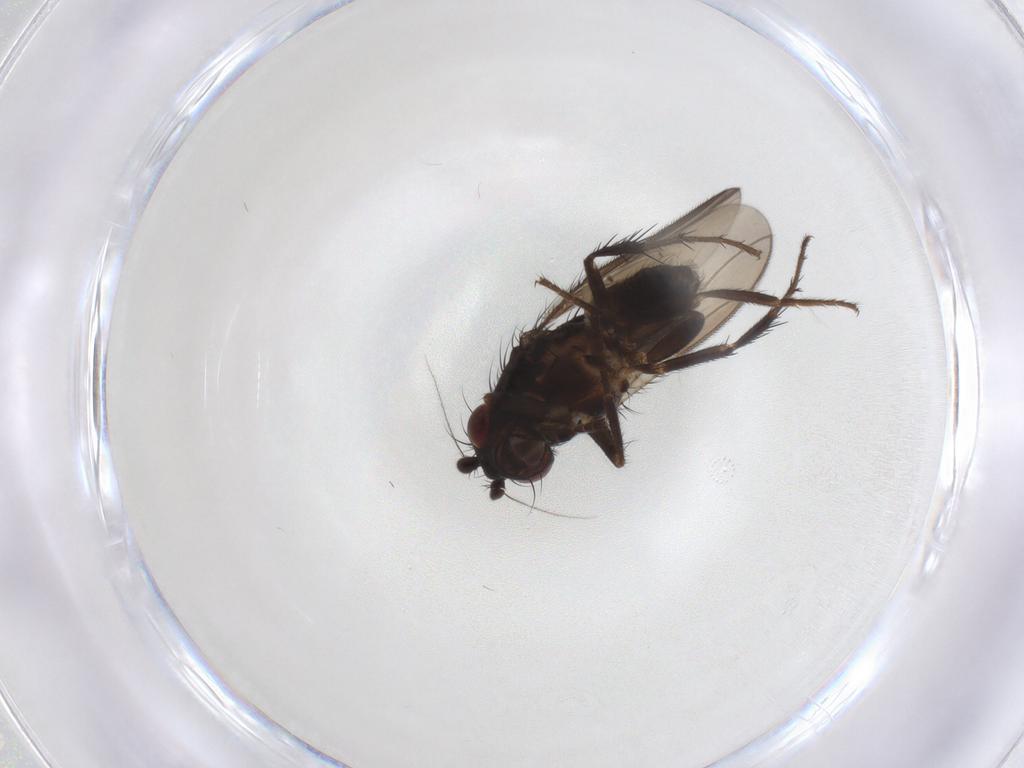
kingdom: Animalia
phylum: Arthropoda
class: Insecta
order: Diptera
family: Sphaeroceridae
